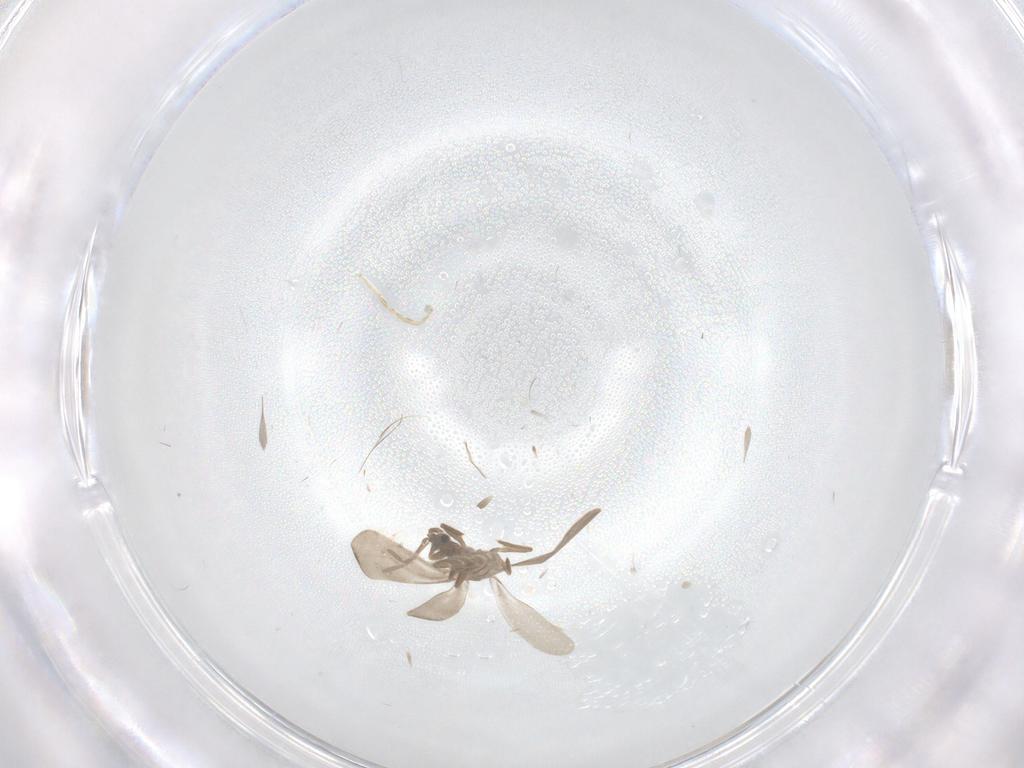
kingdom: Animalia
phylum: Arthropoda
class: Insecta
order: Hemiptera
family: Enicocephalidae
